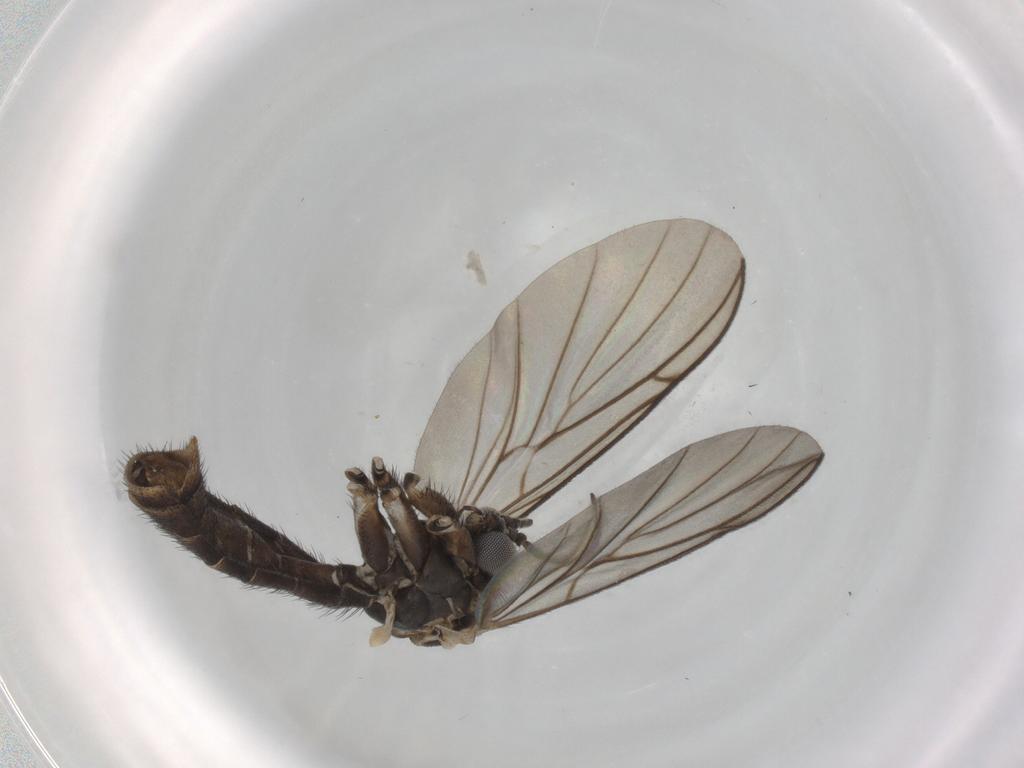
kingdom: Animalia
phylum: Arthropoda
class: Insecta
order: Diptera
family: Keroplatidae
